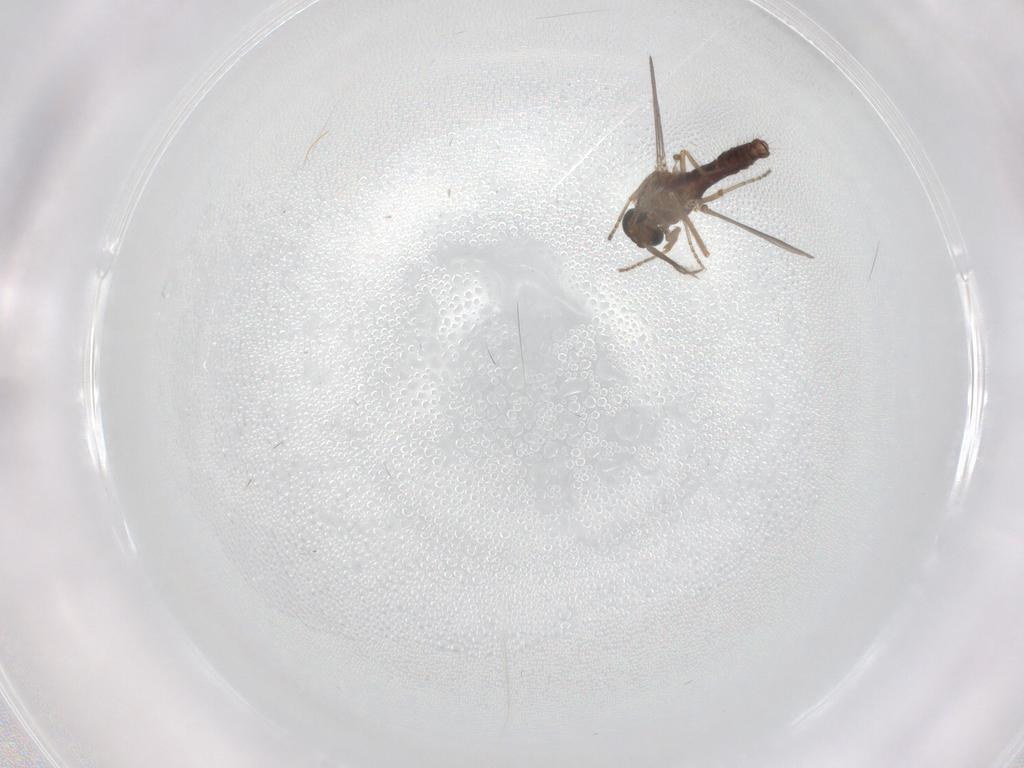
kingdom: Animalia
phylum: Arthropoda
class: Insecta
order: Diptera
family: Ceratopogonidae
